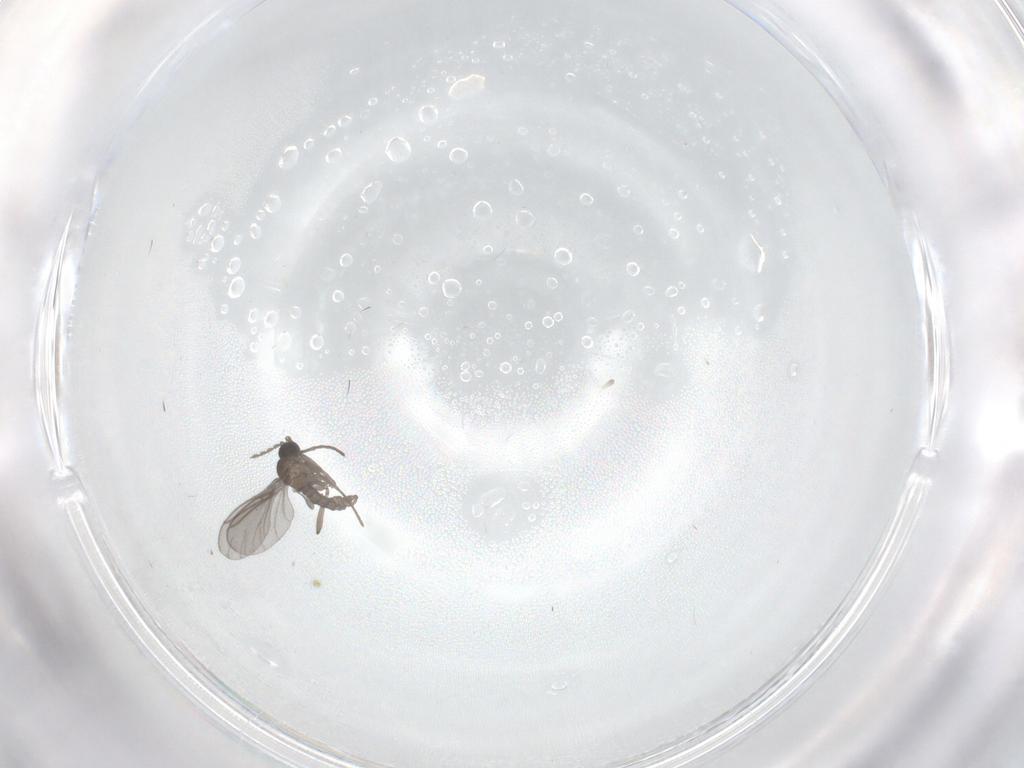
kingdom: Animalia
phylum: Arthropoda
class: Insecta
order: Diptera
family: Sciaridae
